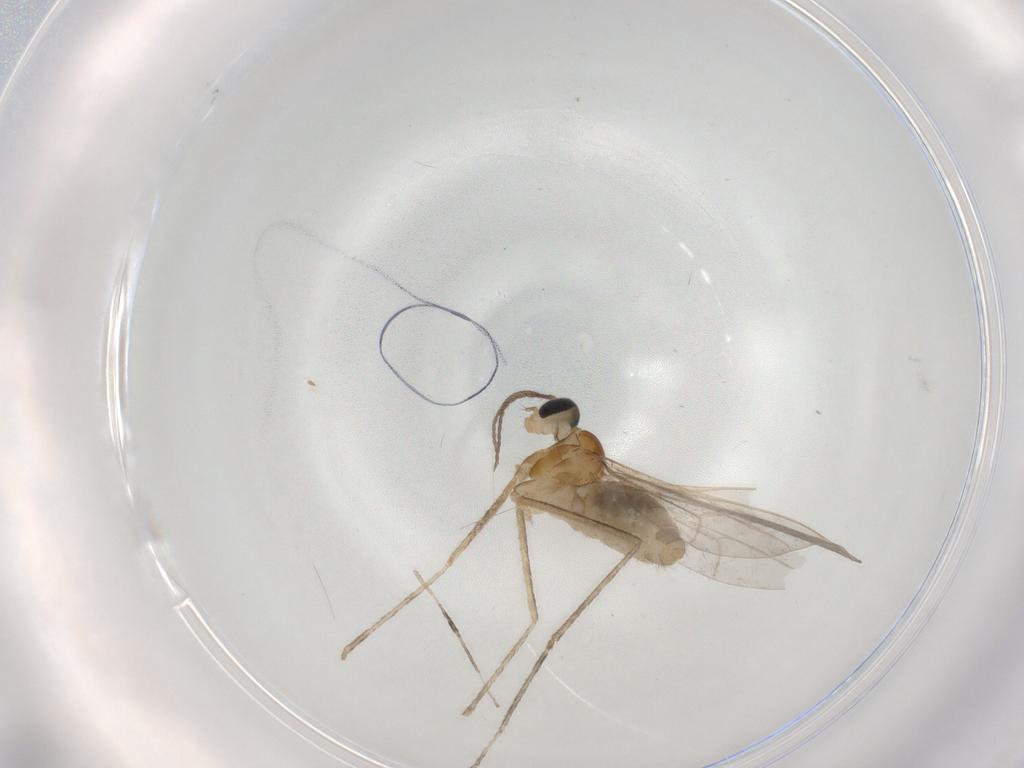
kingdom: Animalia
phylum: Arthropoda
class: Insecta
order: Diptera
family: Cecidomyiidae
